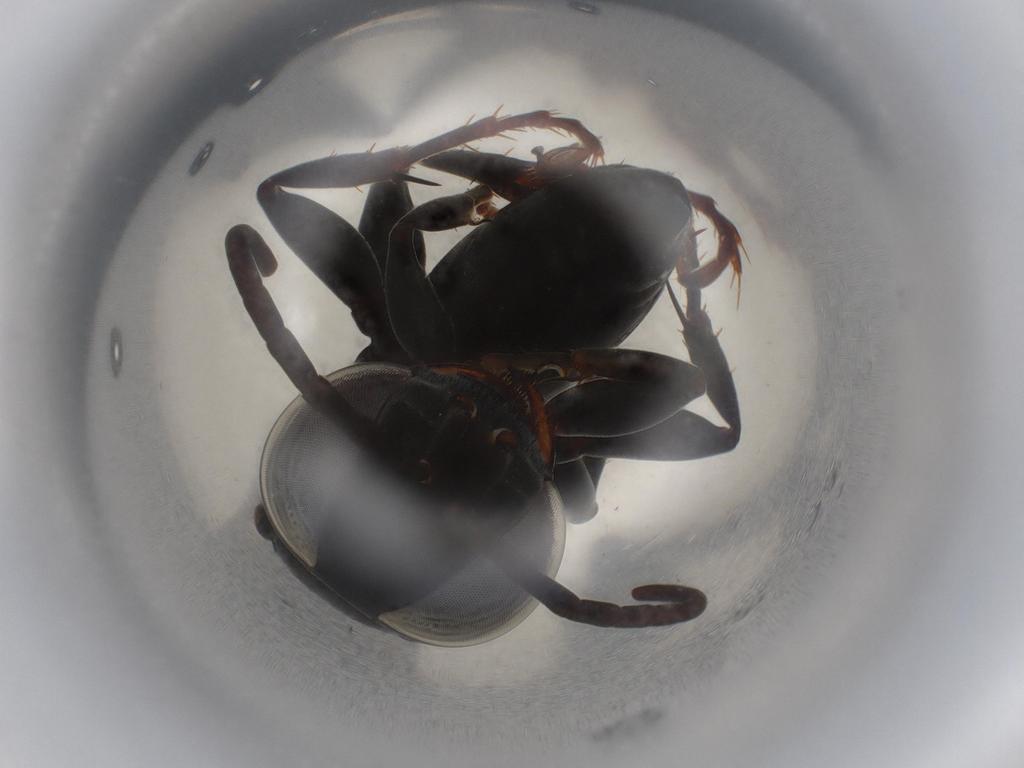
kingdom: Animalia
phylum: Arthropoda
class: Insecta
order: Hymenoptera
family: Crabronidae
